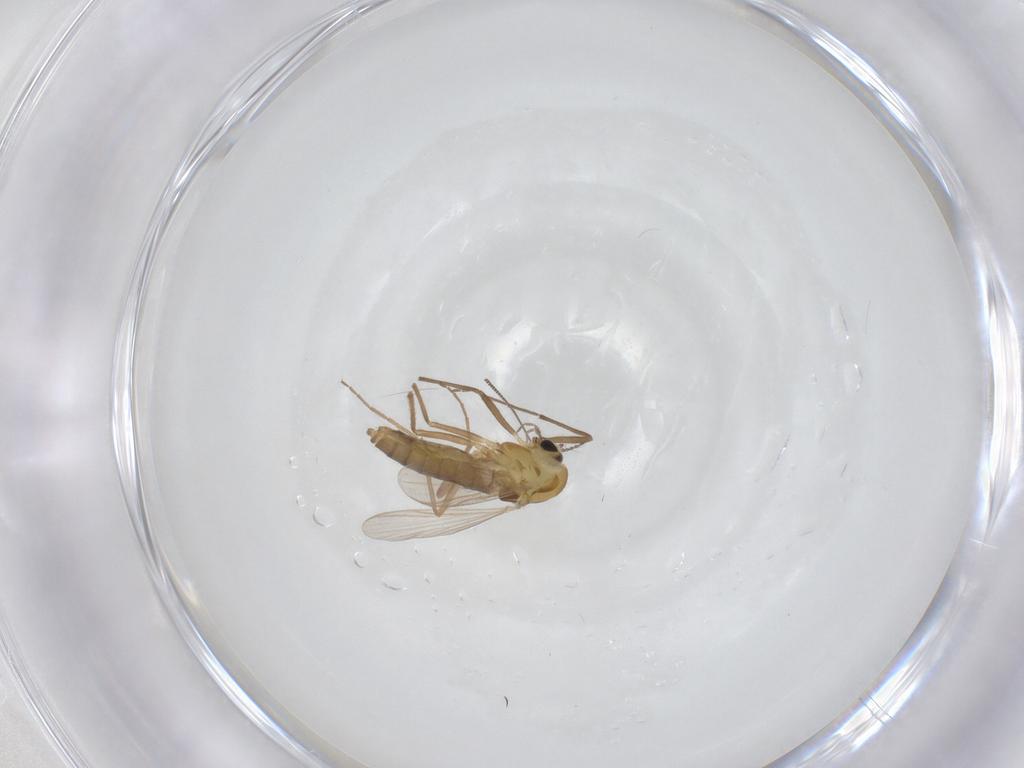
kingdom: Animalia
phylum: Arthropoda
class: Insecta
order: Diptera
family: Chironomidae
